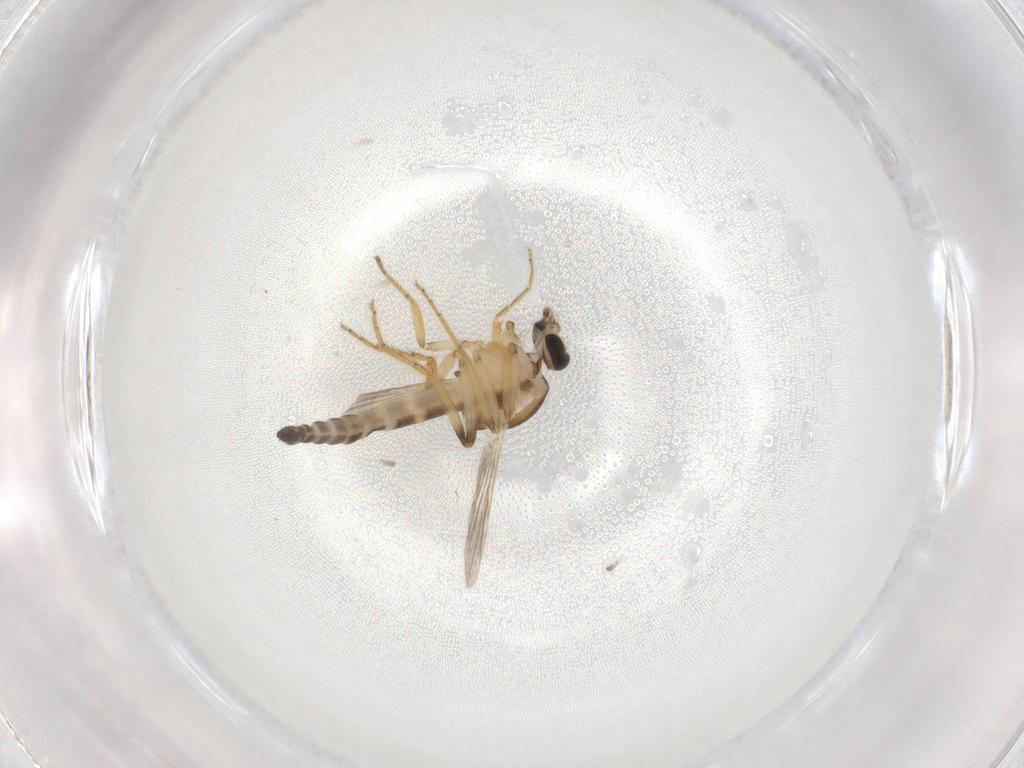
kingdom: Animalia
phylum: Arthropoda
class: Insecta
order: Diptera
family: Ceratopogonidae
